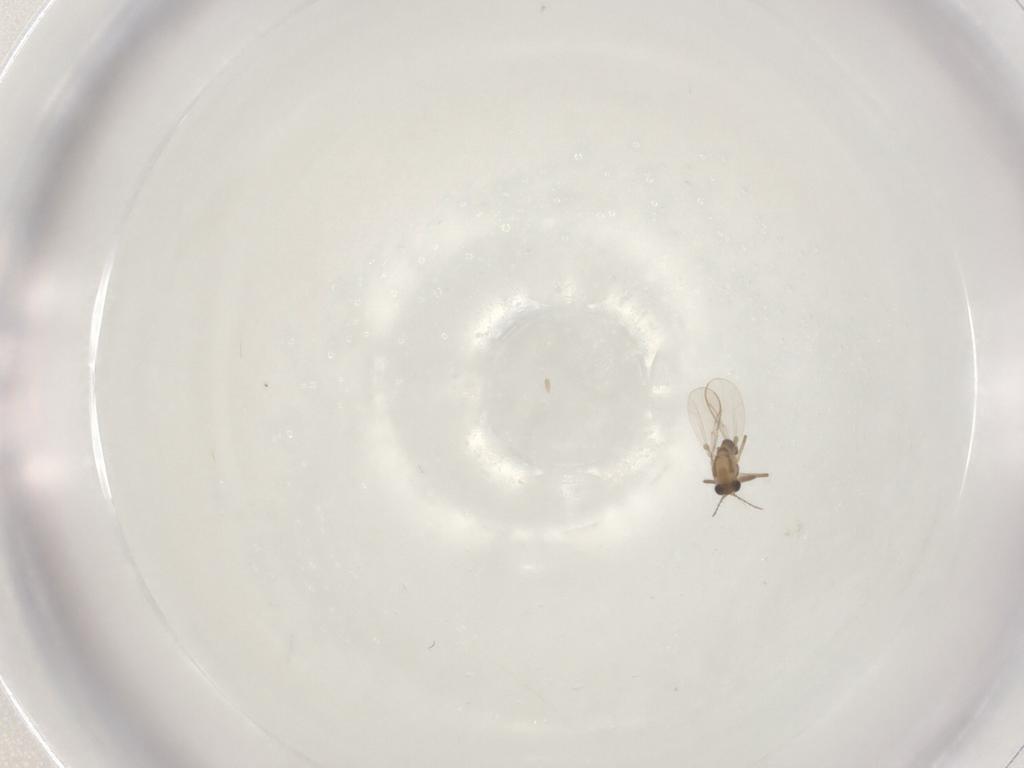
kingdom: Animalia
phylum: Arthropoda
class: Insecta
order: Diptera
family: Chironomidae
